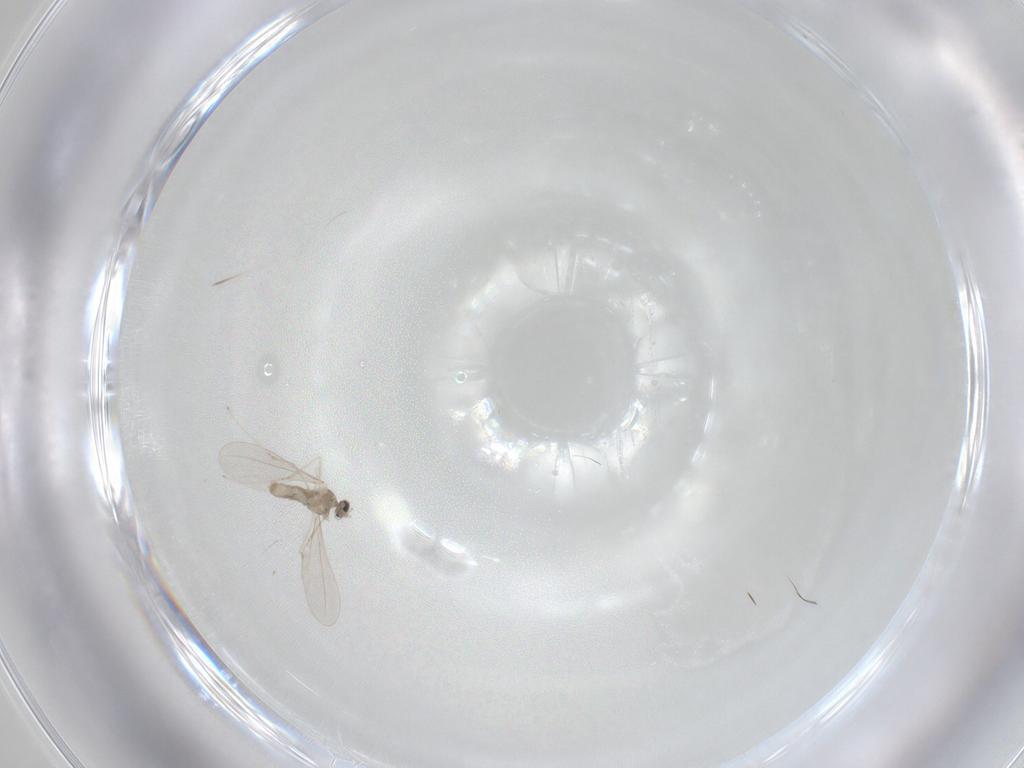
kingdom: Animalia
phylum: Arthropoda
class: Insecta
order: Diptera
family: Cecidomyiidae
